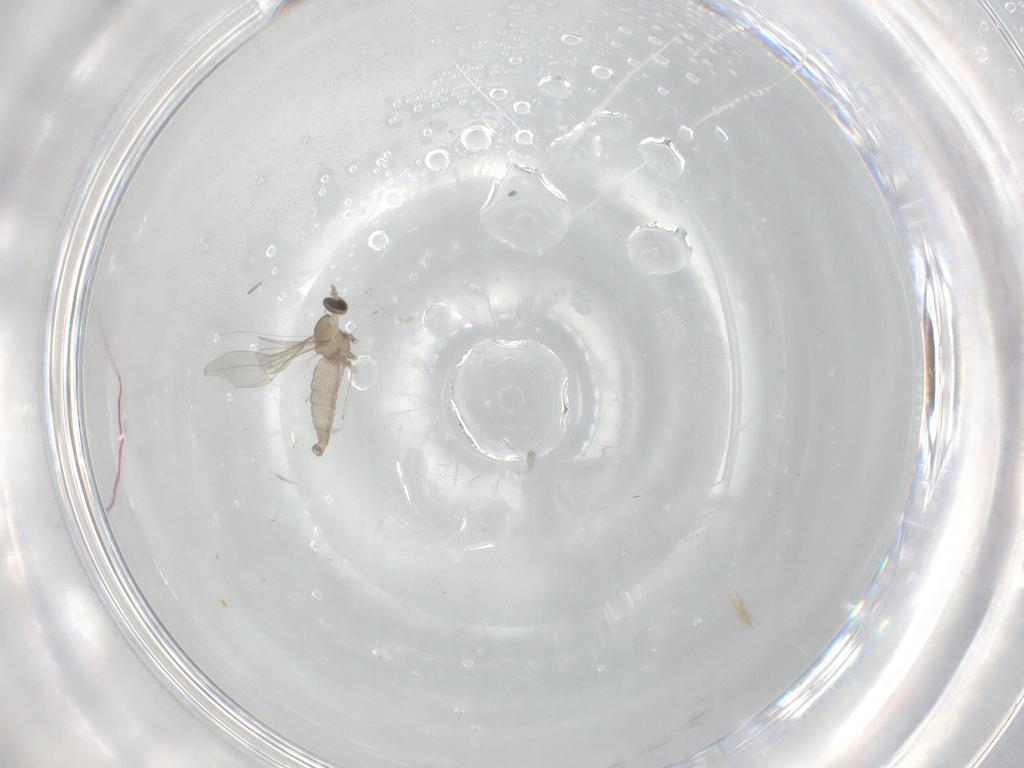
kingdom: Animalia
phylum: Arthropoda
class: Insecta
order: Diptera
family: Cecidomyiidae
